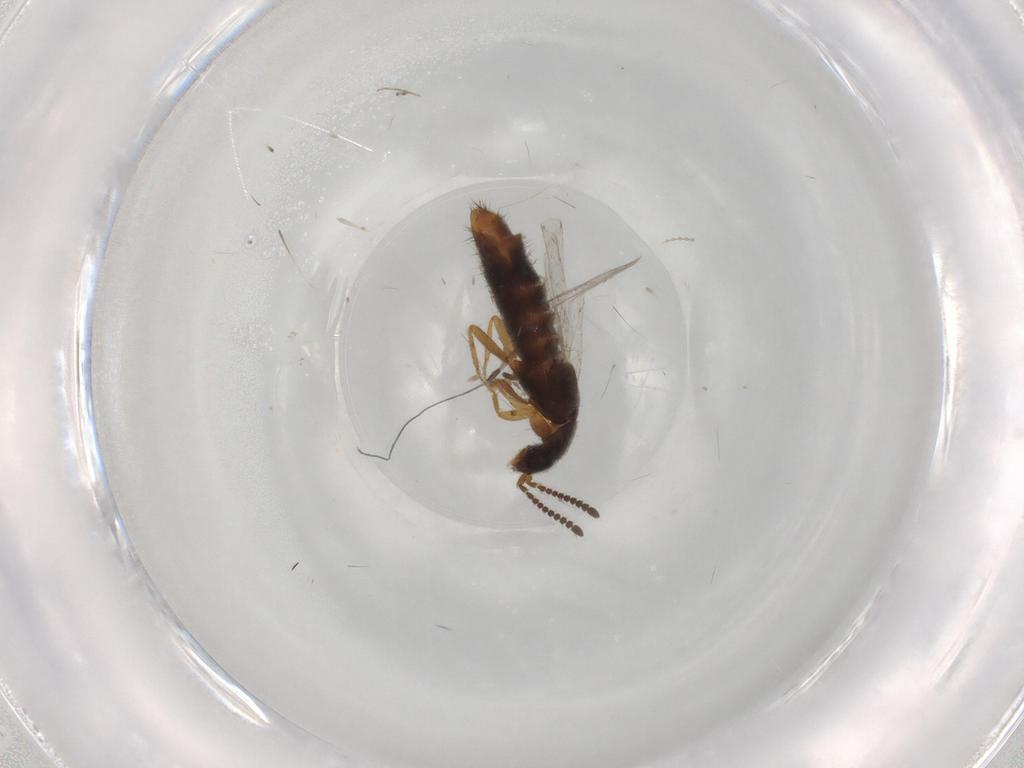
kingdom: Animalia
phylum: Arthropoda
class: Insecta
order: Coleoptera
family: Staphylinidae
